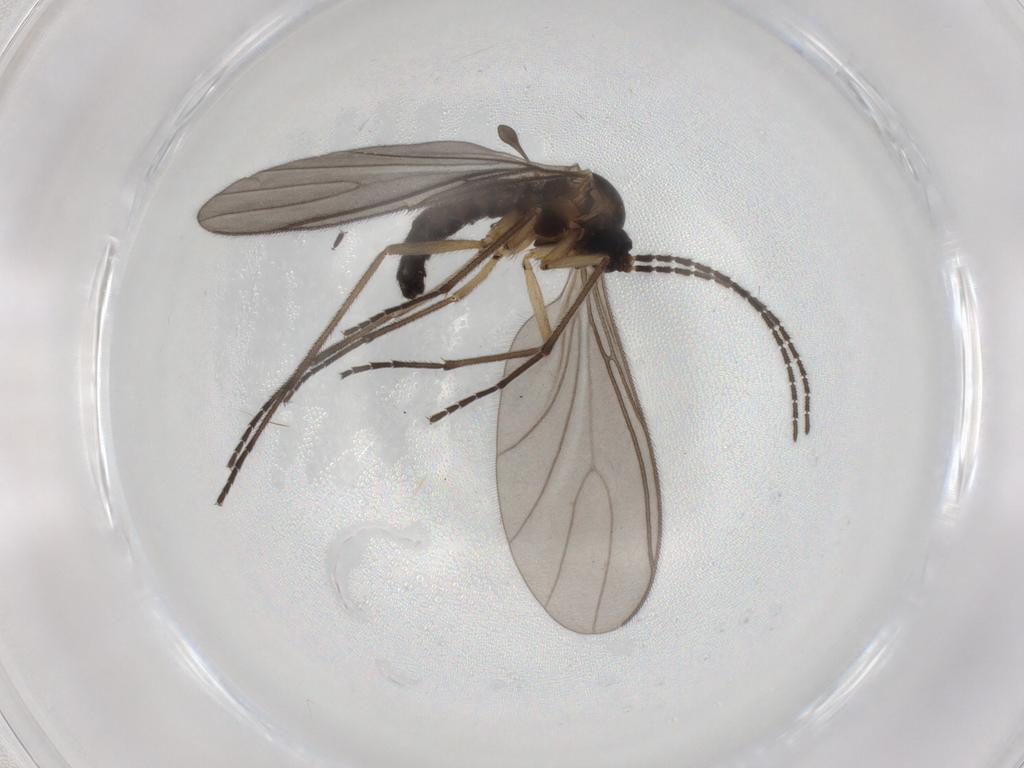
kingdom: Animalia
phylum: Arthropoda
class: Insecta
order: Diptera
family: Sciaridae
